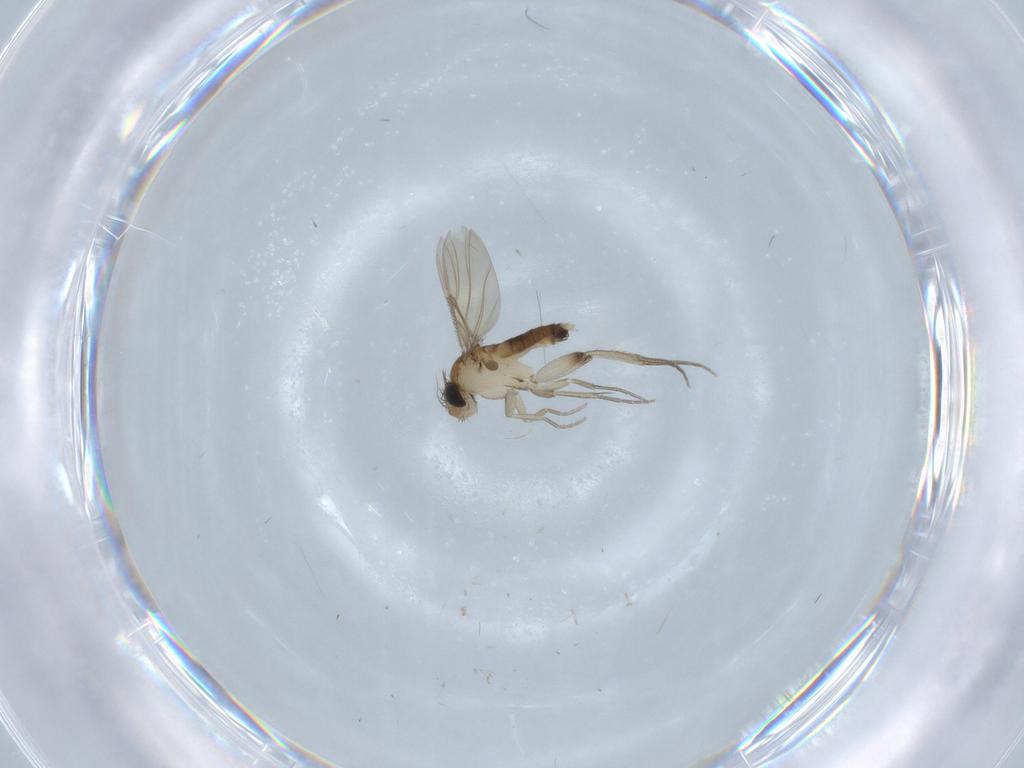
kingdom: Animalia
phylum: Arthropoda
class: Insecta
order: Diptera
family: Phoridae
